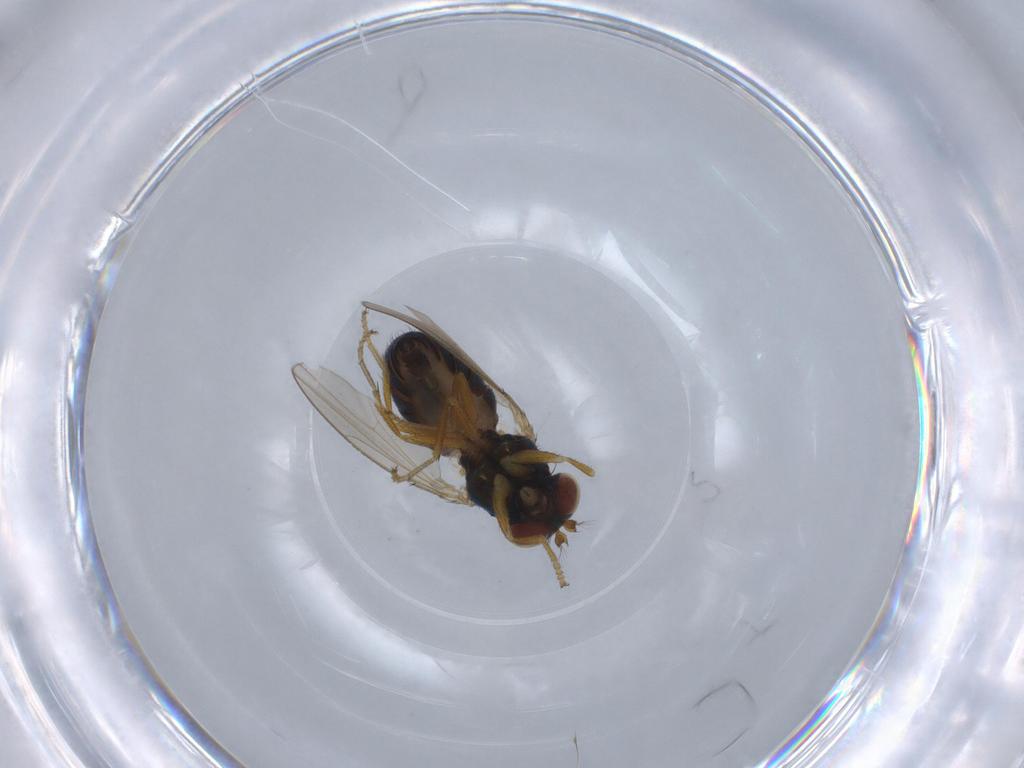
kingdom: Animalia
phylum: Arthropoda
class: Insecta
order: Diptera
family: Ephydridae
